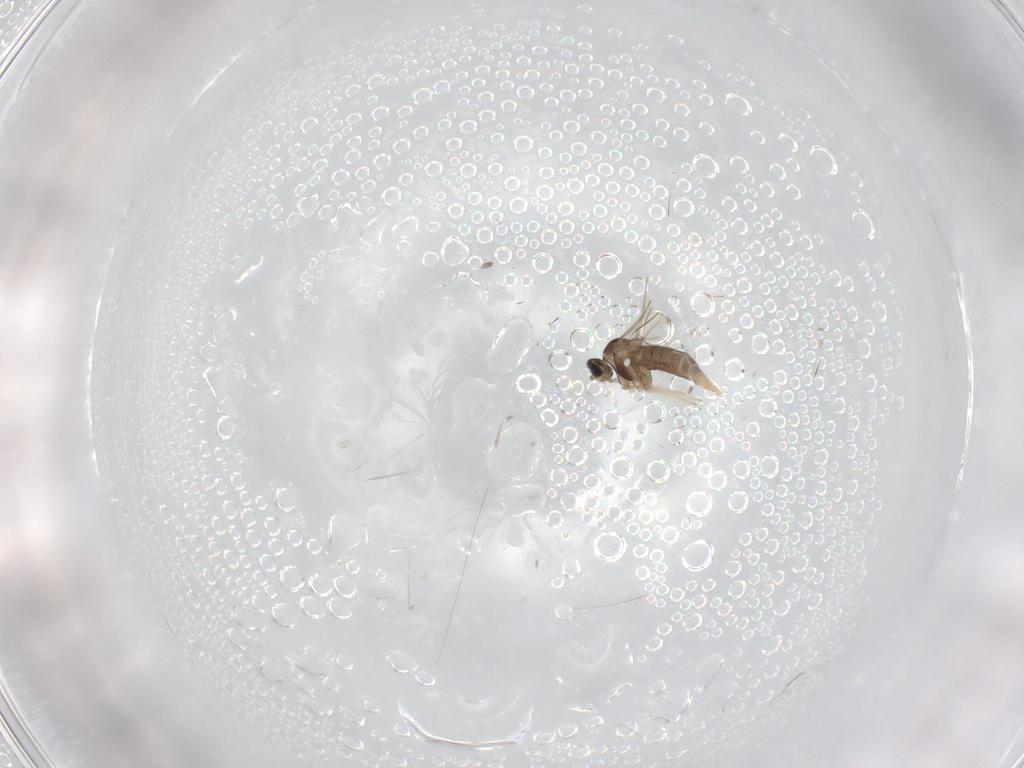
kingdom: Animalia
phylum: Arthropoda
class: Insecta
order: Diptera
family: Cecidomyiidae
